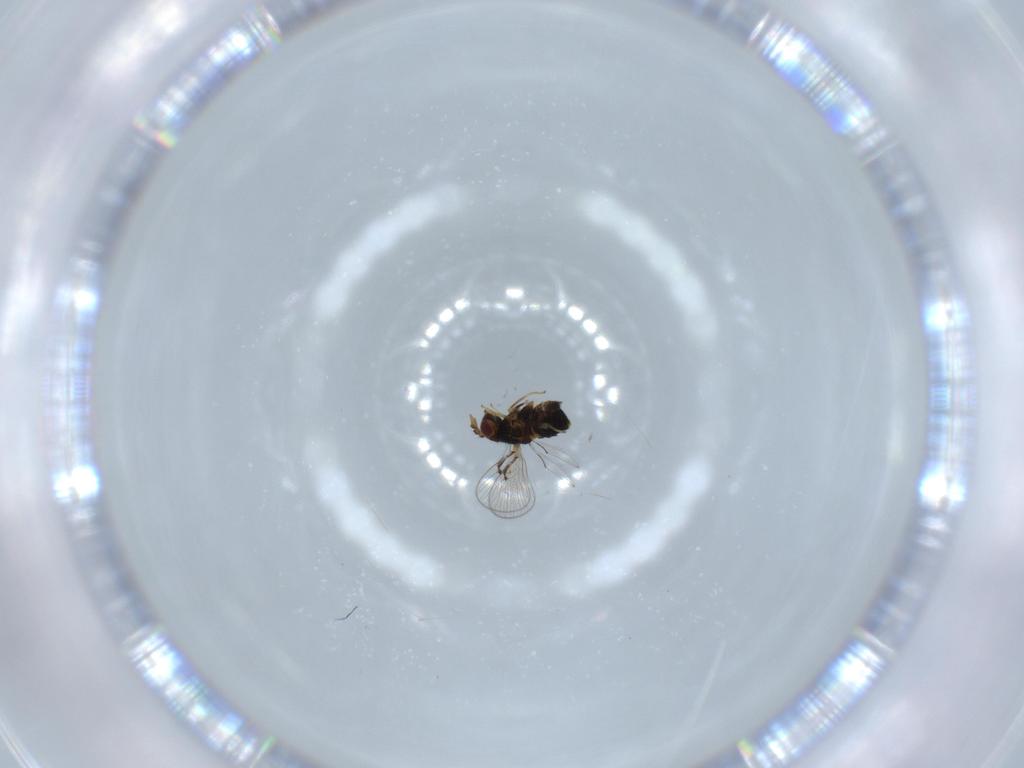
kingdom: Animalia
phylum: Arthropoda
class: Insecta
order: Hymenoptera
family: Trichogrammatidae
